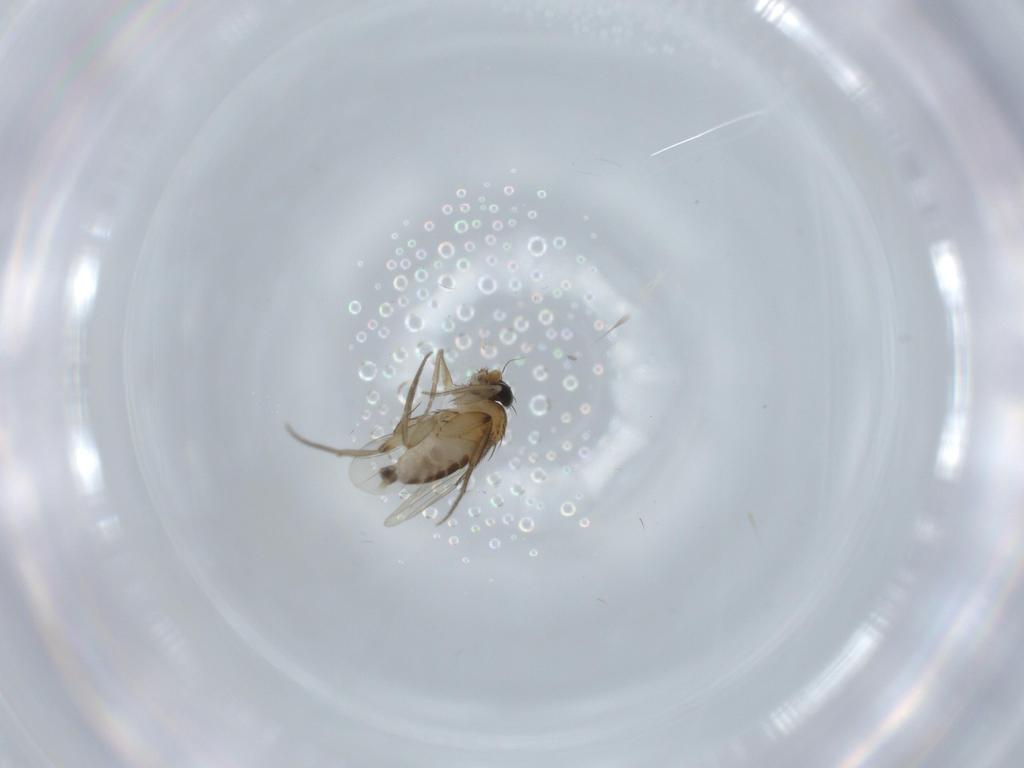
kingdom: Animalia
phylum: Arthropoda
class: Insecta
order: Diptera
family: Phoridae
